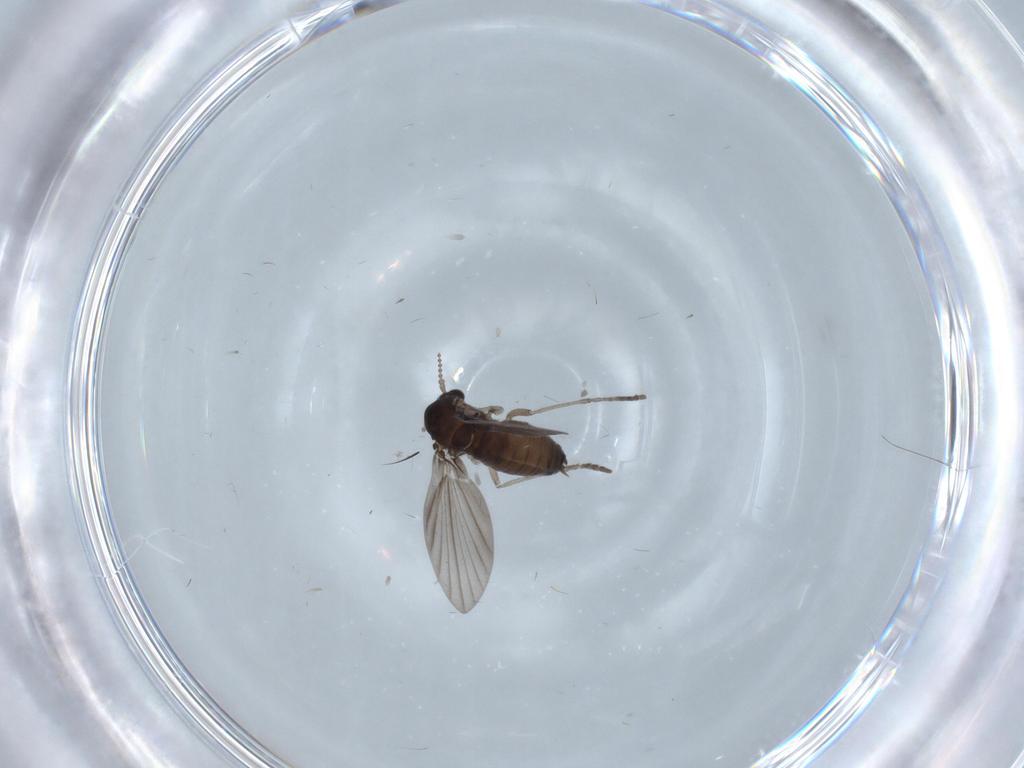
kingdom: Animalia
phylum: Arthropoda
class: Insecta
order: Diptera
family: Psychodidae
